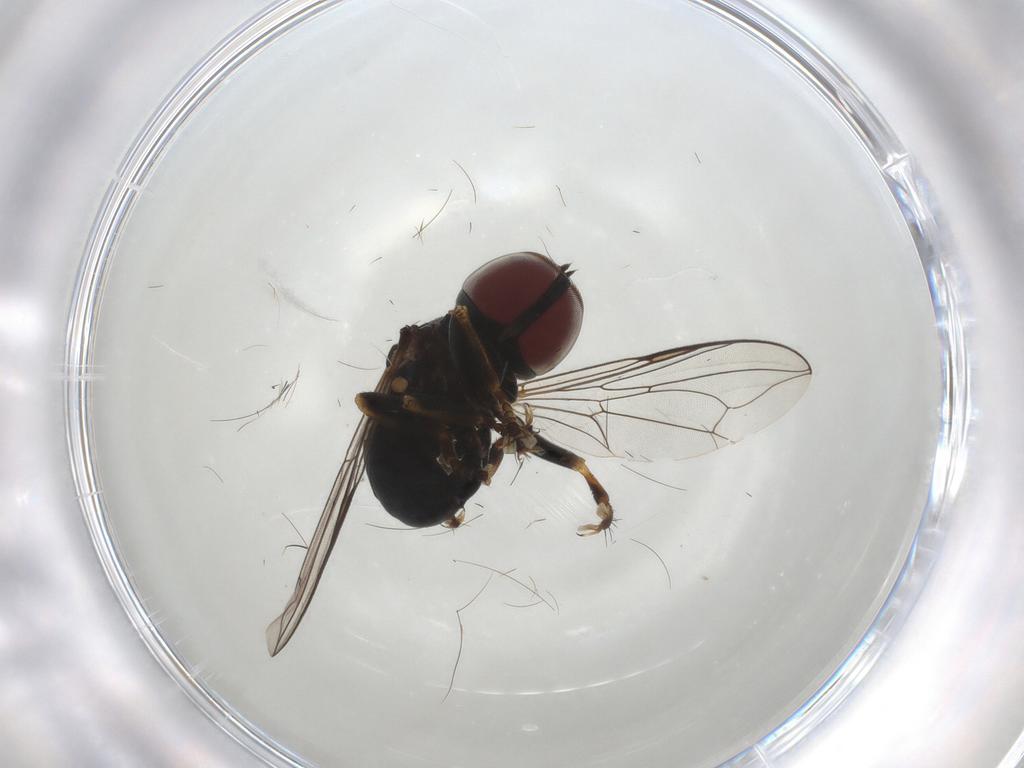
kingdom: Animalia
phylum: Arthropoda
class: Insecta
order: Diptera
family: Pipunculidae
